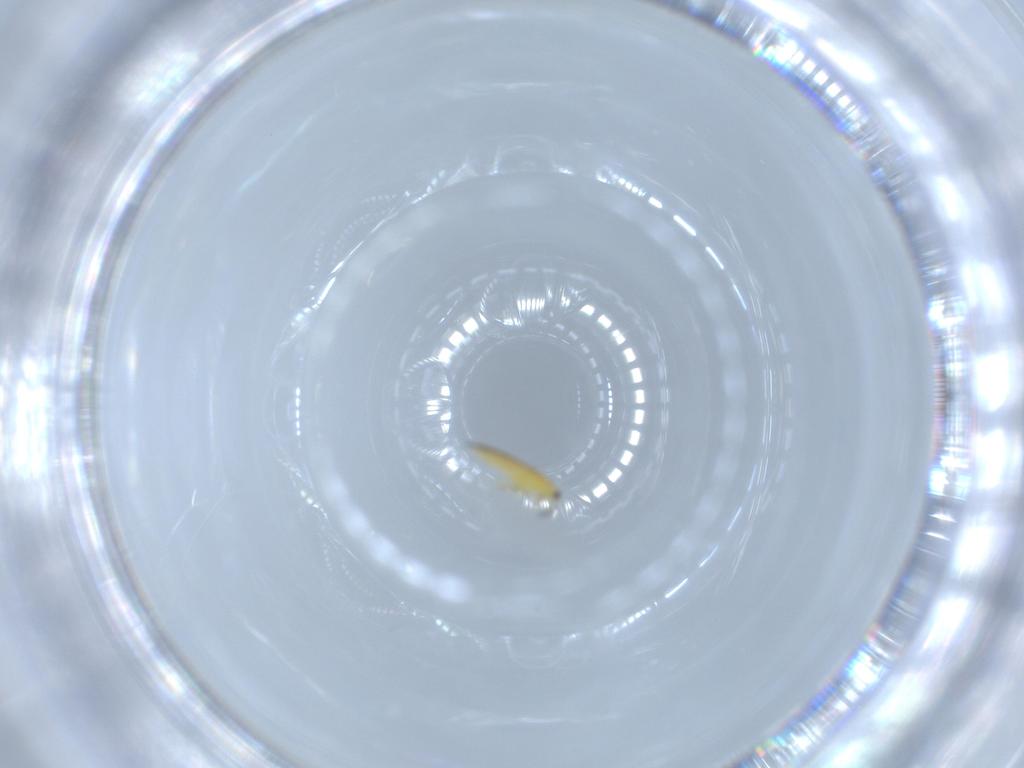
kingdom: Animalia
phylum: Arthropoda
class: Insecta
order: Thysanoptera
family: Thripidae
